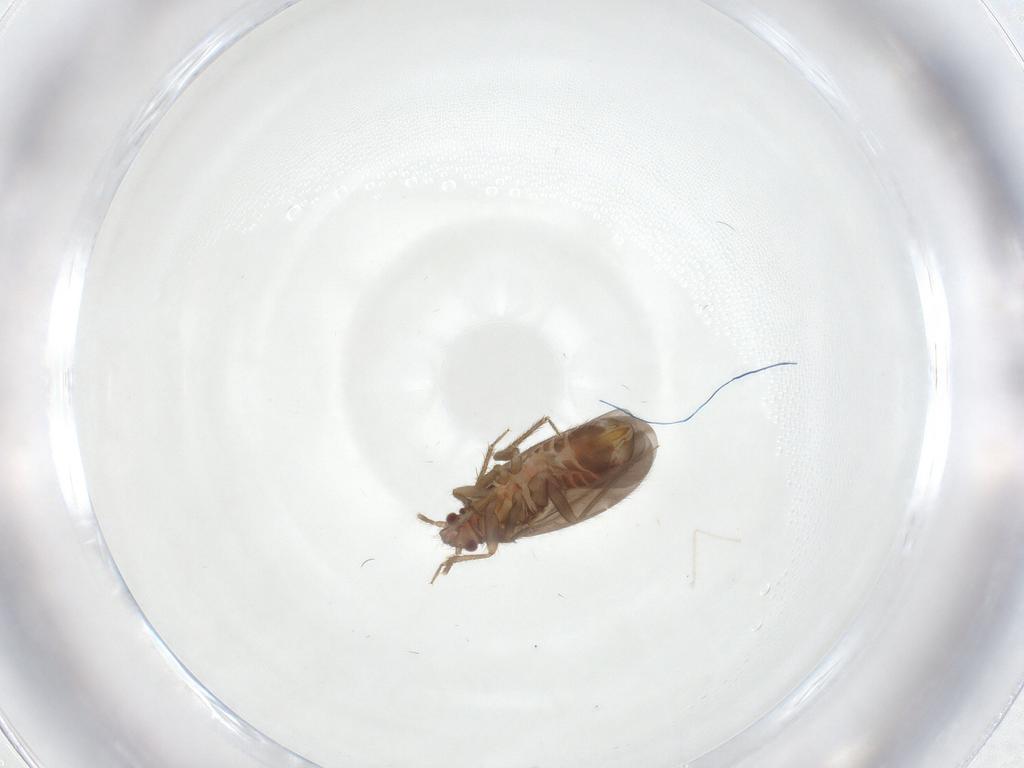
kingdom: Animalia
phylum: Arthropoda
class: Insecta
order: Hemiptera
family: Ceratocombidae
